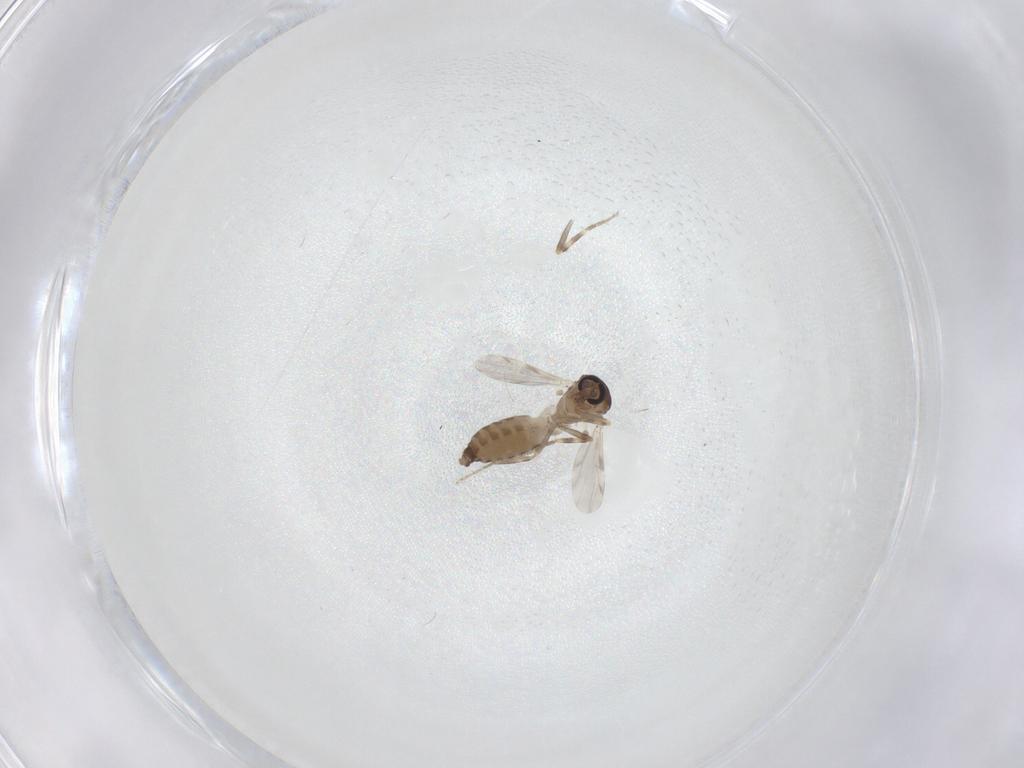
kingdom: Animalia
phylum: Arthropoda
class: Insecta
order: Diptera
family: Ceratopogonidae
